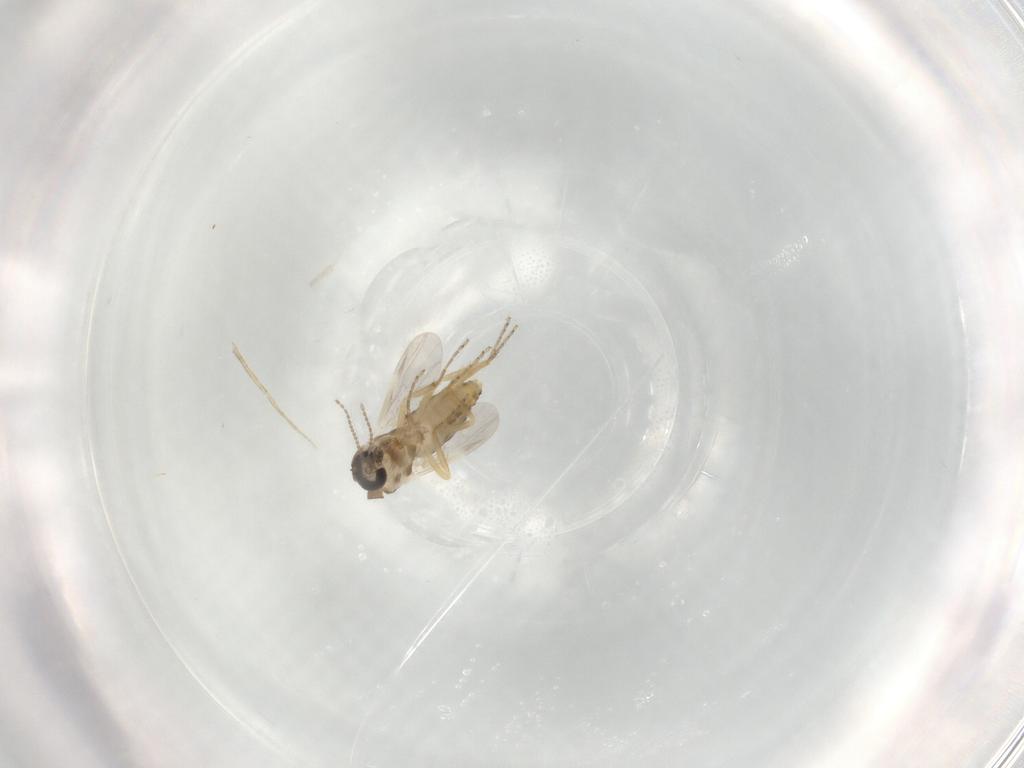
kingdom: Animalia
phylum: Arthropoda
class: Insecta
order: Diptera
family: Ceratopogonidae
